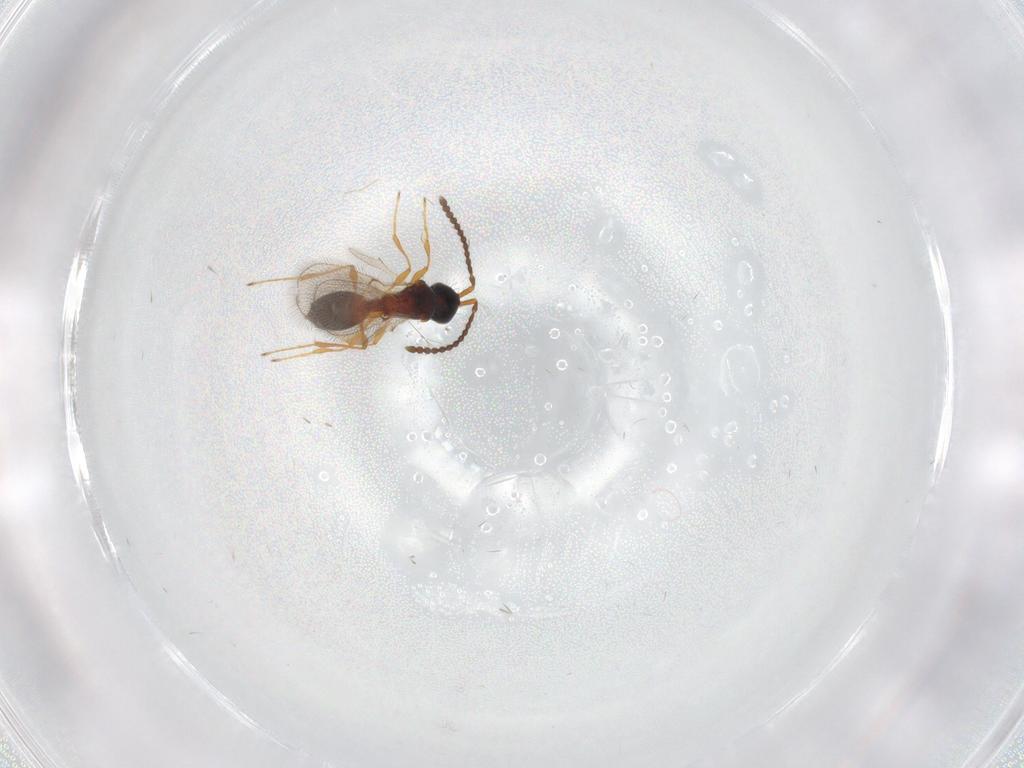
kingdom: Animalia
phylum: Arthropoda
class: Insecta
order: Hymenoptera
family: Diapriidae
